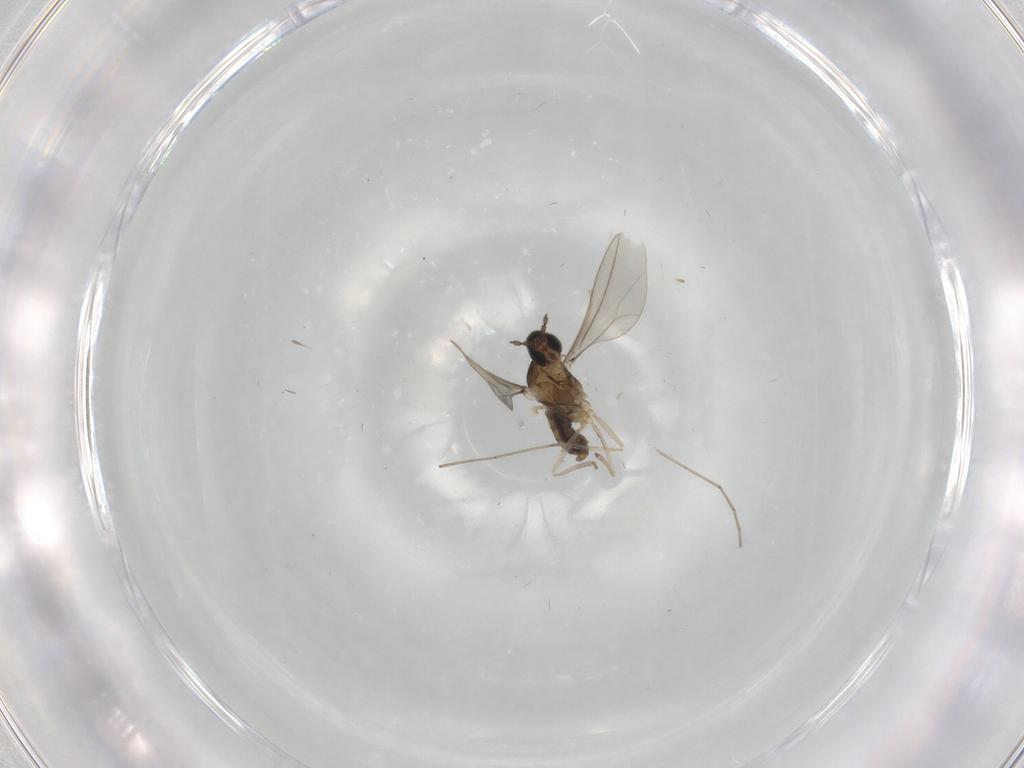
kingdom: Animalia
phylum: Arthropoda
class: Insecta
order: Diptera
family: Cecidomyiidae
